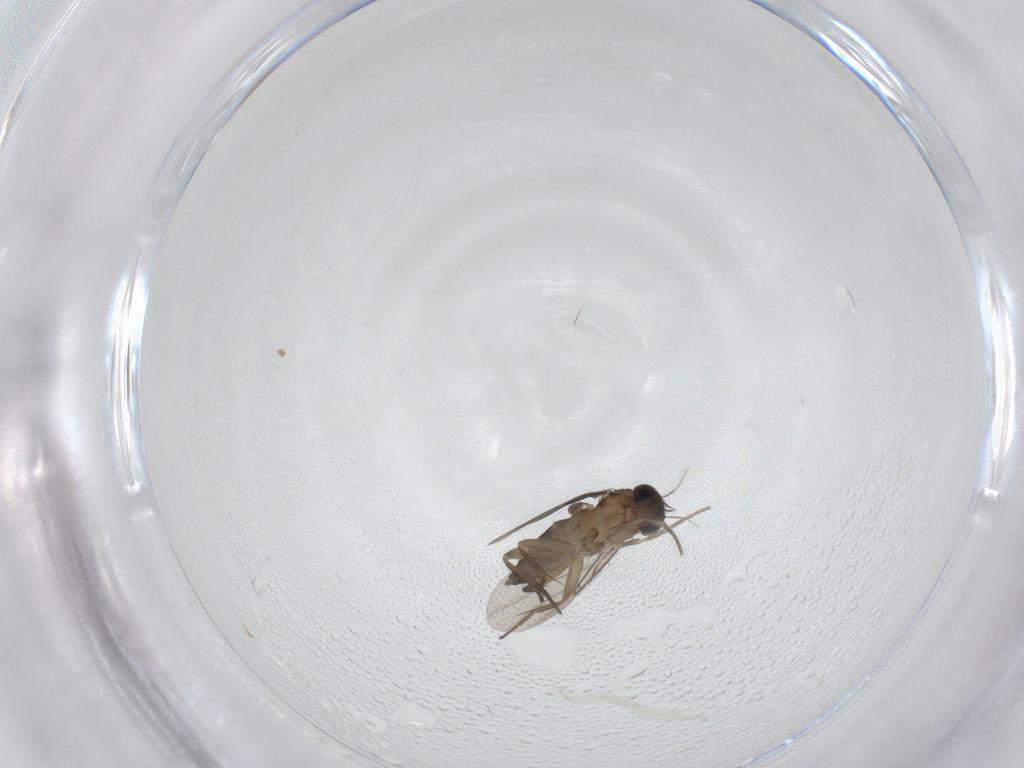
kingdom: Animalia
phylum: Arthropoda
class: Insecta
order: Diptera
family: Phoridae
